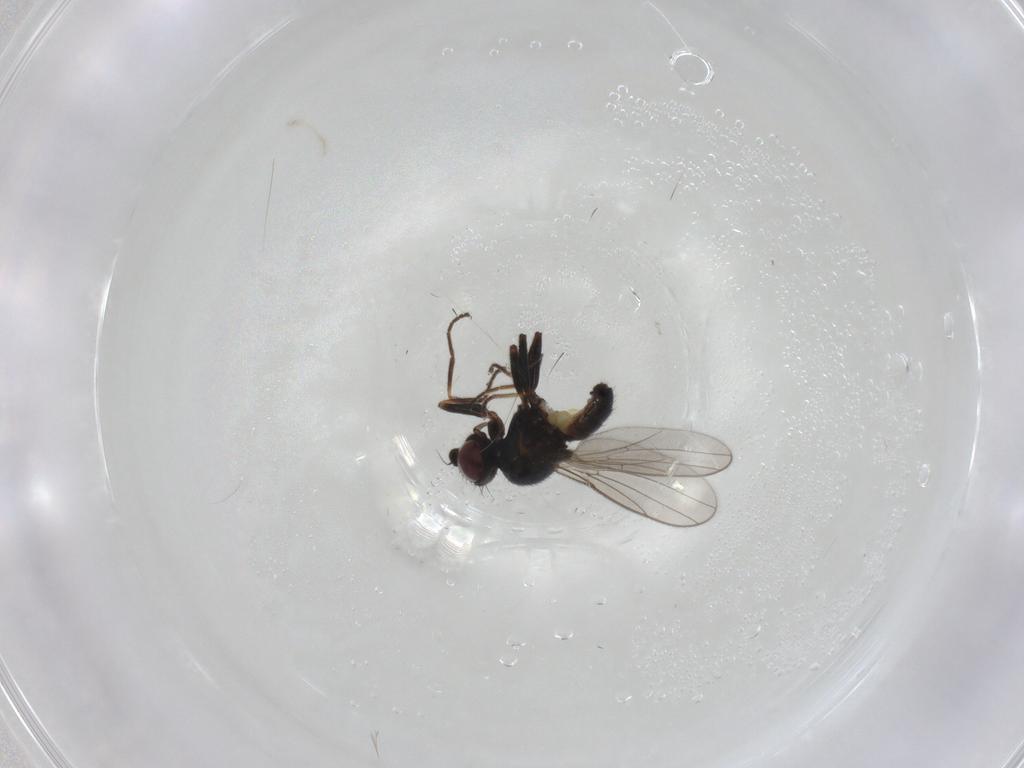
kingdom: Animalia
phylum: Arthropoda
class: Insecta
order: Diptera
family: Chloropidae
